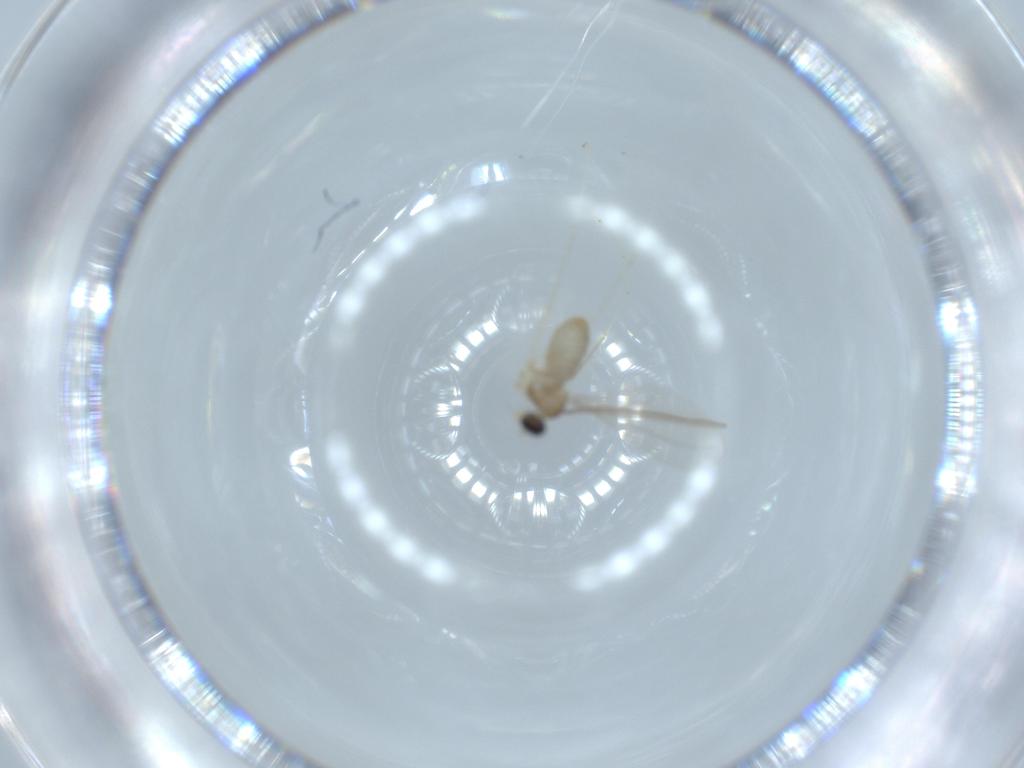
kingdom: Animalia
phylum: Arthropoda
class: Insecta
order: Diptera
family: Cecidomyiidae
